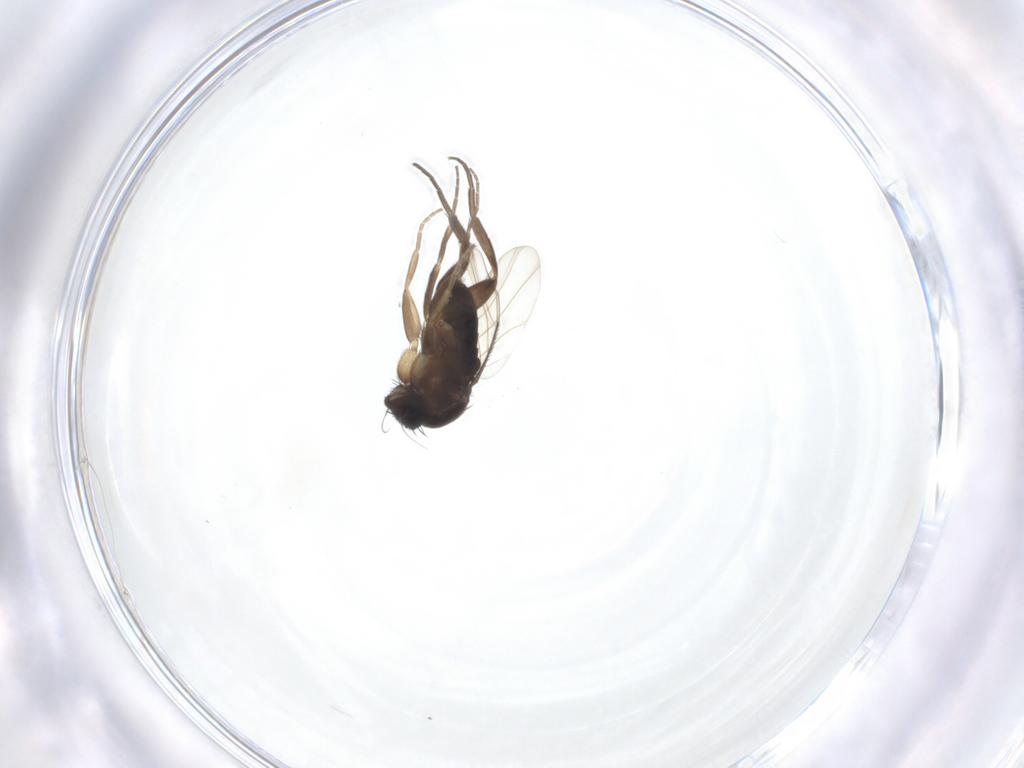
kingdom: Animalia
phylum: Arthropoda
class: Insecta
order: Diptera
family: Phoridae
